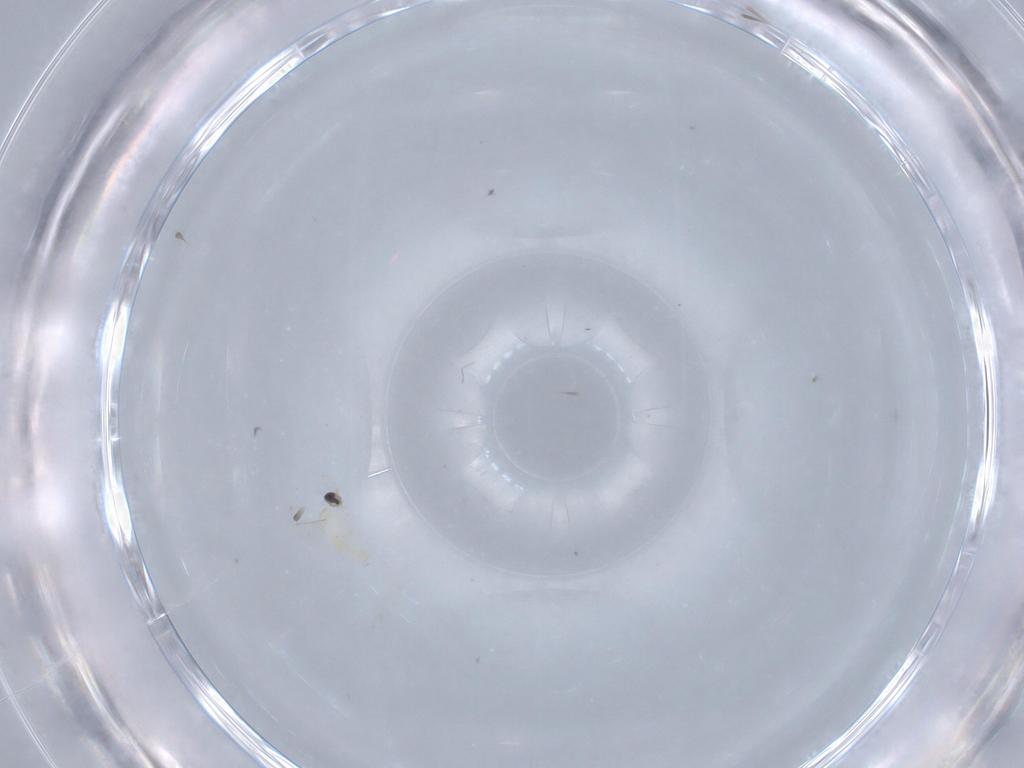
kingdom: Animalia
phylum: Arthropoda
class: Insecta
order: Diptera
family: Cecidomyiidae
